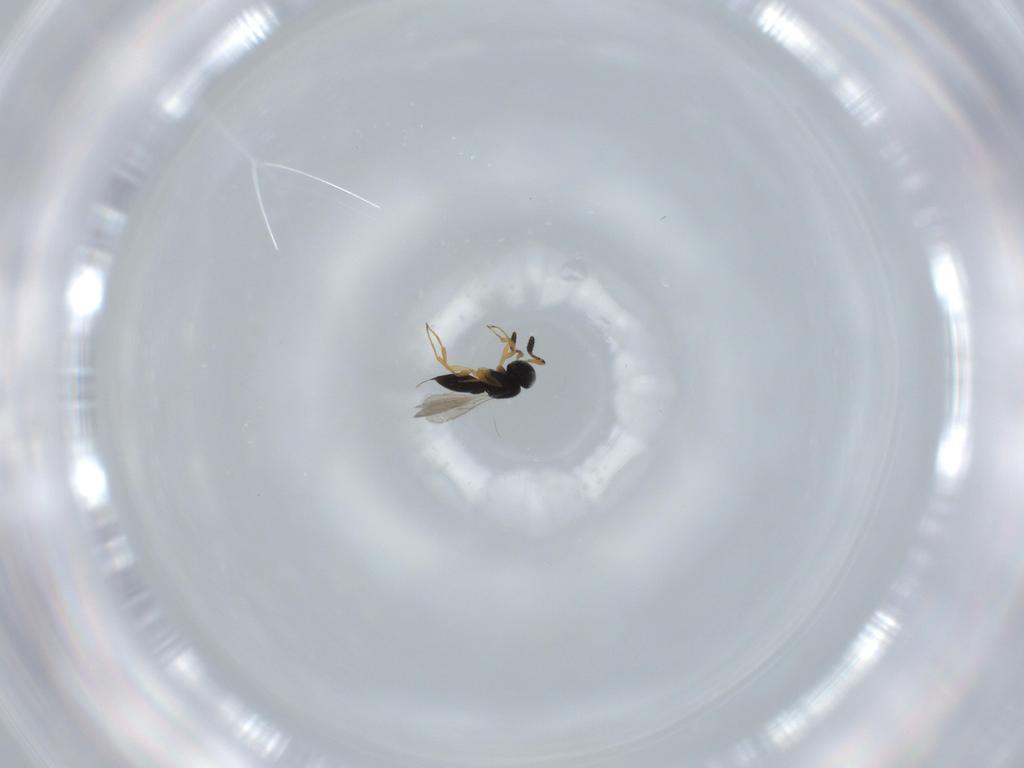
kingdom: Animalia
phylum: Arthropoda
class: Insecta
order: Hymenoptera
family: Scelionidae
